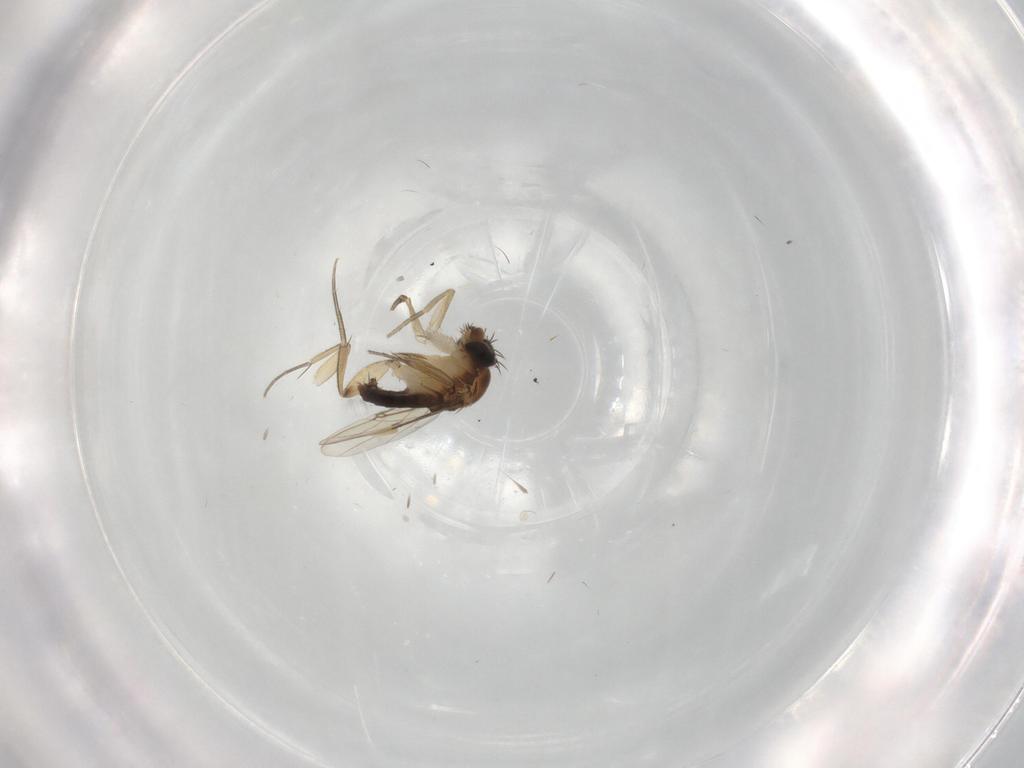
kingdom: Animalia
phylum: Arthropoda
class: Insecta
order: Diptera
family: Phoridae
